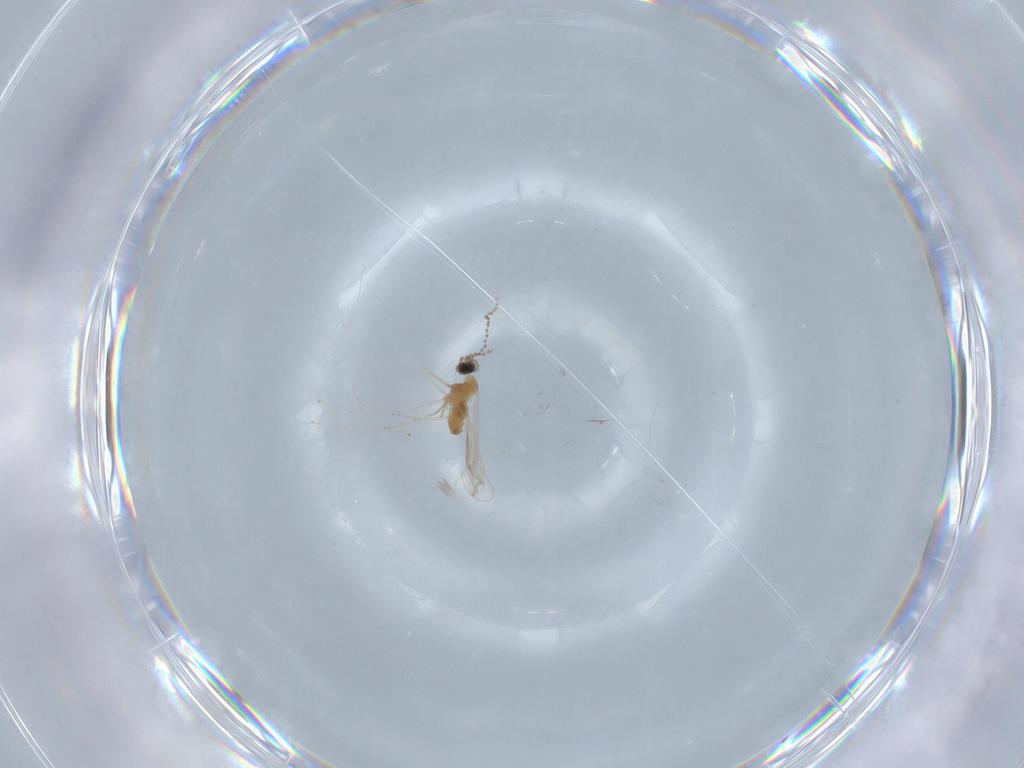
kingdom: Animalia
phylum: Arthropoda
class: Insecta
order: Diptera
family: Cecidomyiidae
